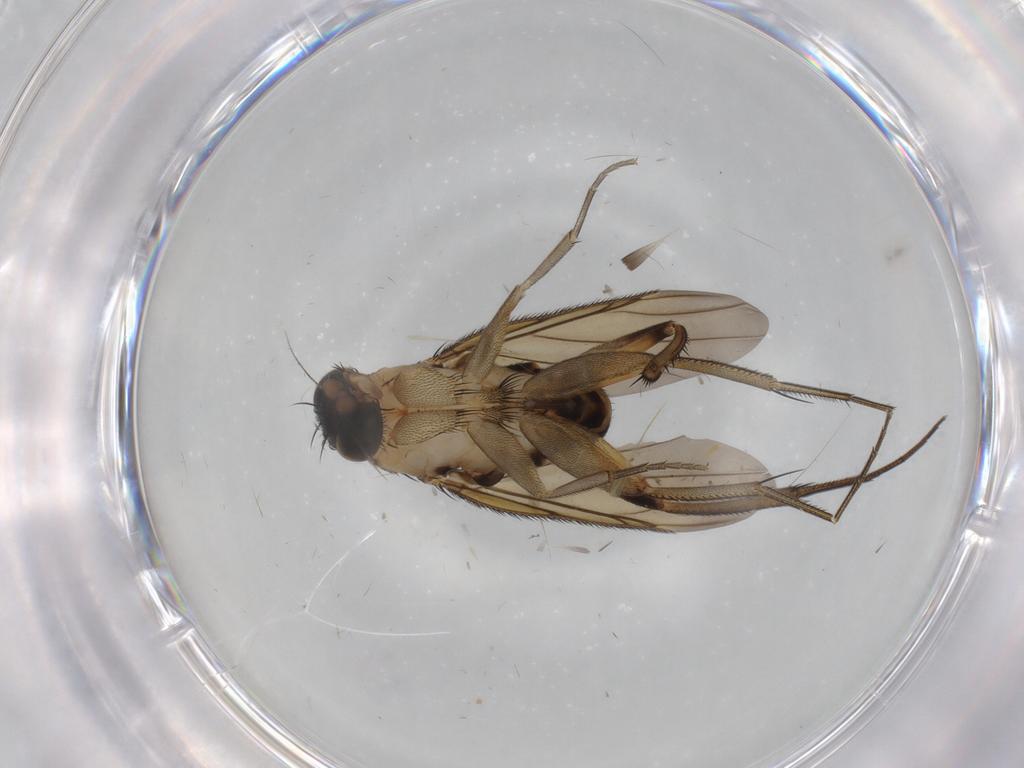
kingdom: Animalia
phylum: Arthropoda
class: Insecta
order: Diptera
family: Phoridae
